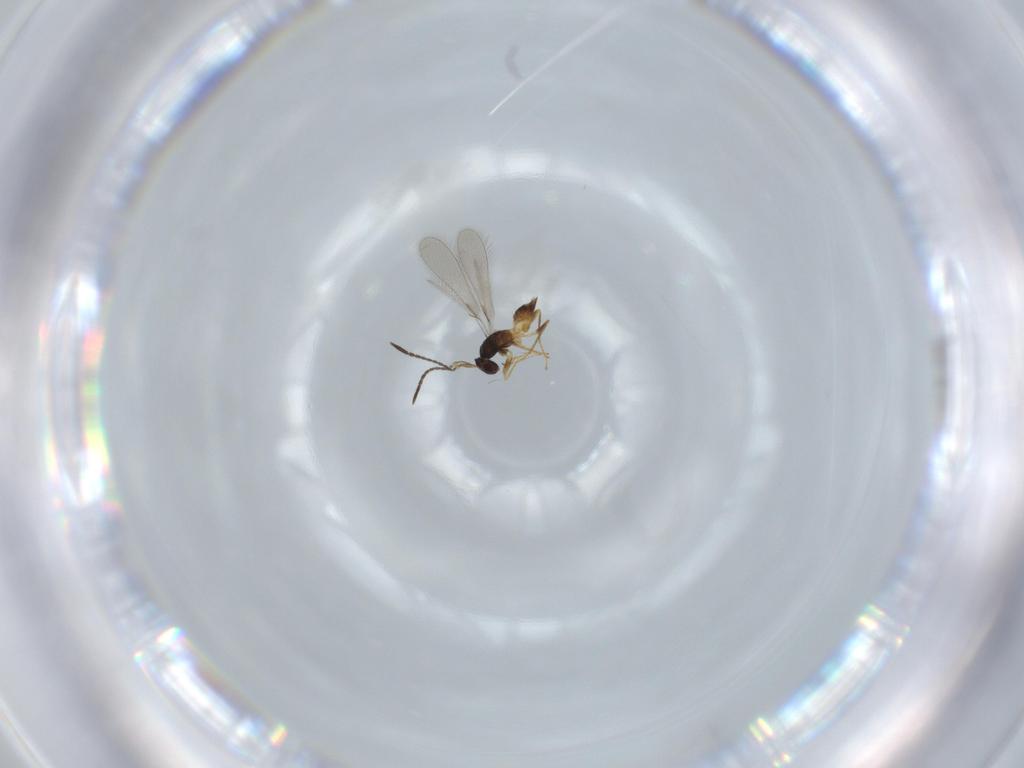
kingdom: Animalia
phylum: Arthropoda
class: Insecta
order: Hymenoptera
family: Mymaridae
